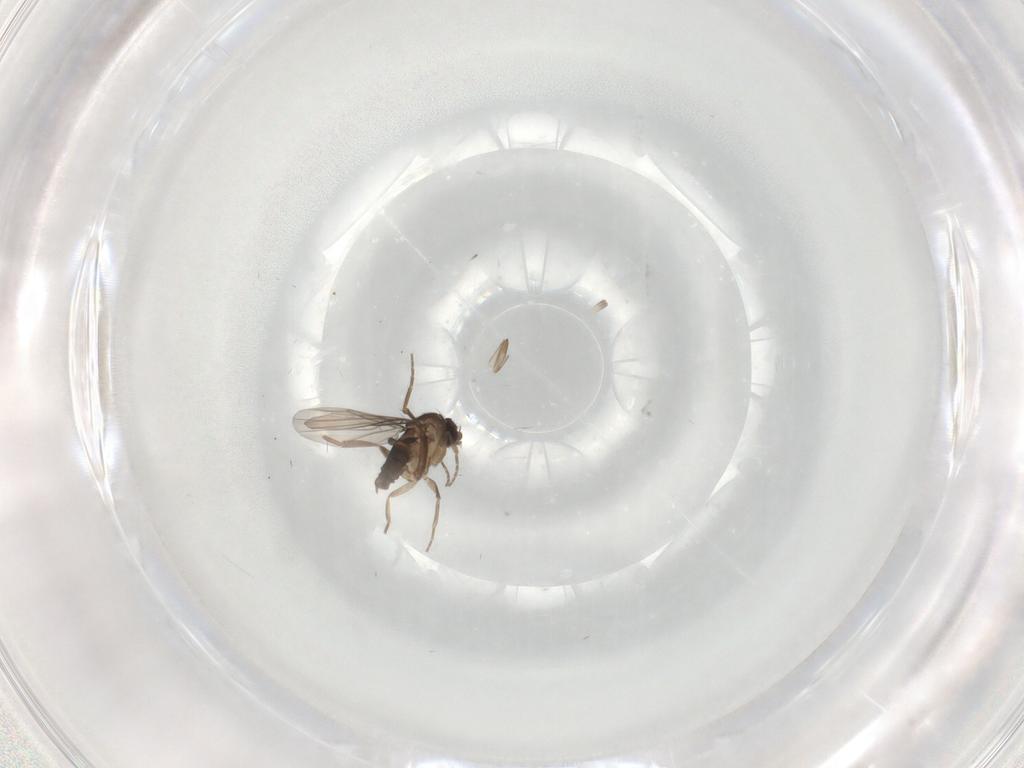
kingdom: Animalia
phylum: Arthropoda
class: Insecta
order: Diptera
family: Phoridae
